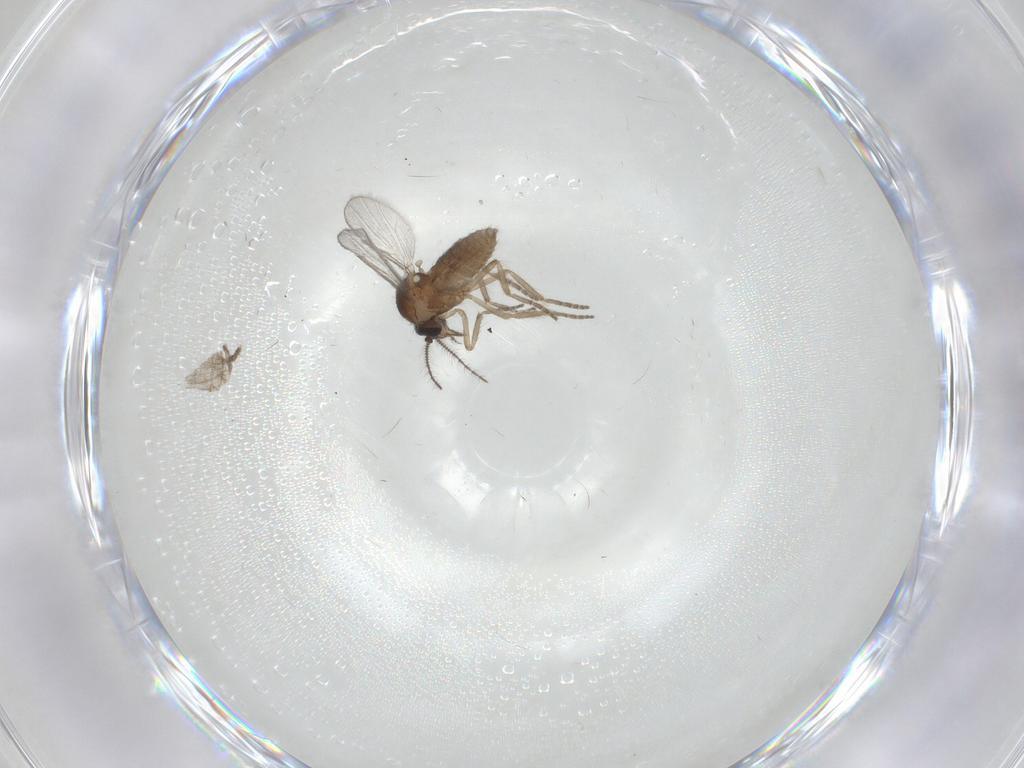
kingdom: Animalia
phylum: Arthropoda
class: Insecta
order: Diptera
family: Cecidomyiidae
